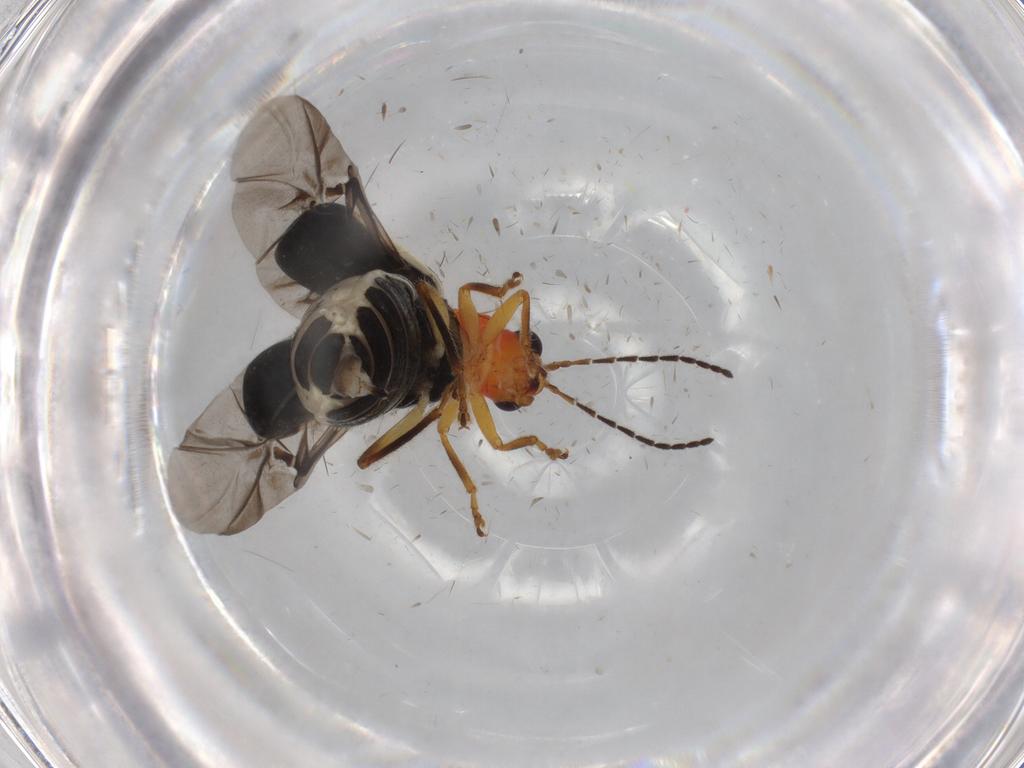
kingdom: Animalia
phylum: Arthropoda
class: Insecta
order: Coleoptera
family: Chrysomelidae
